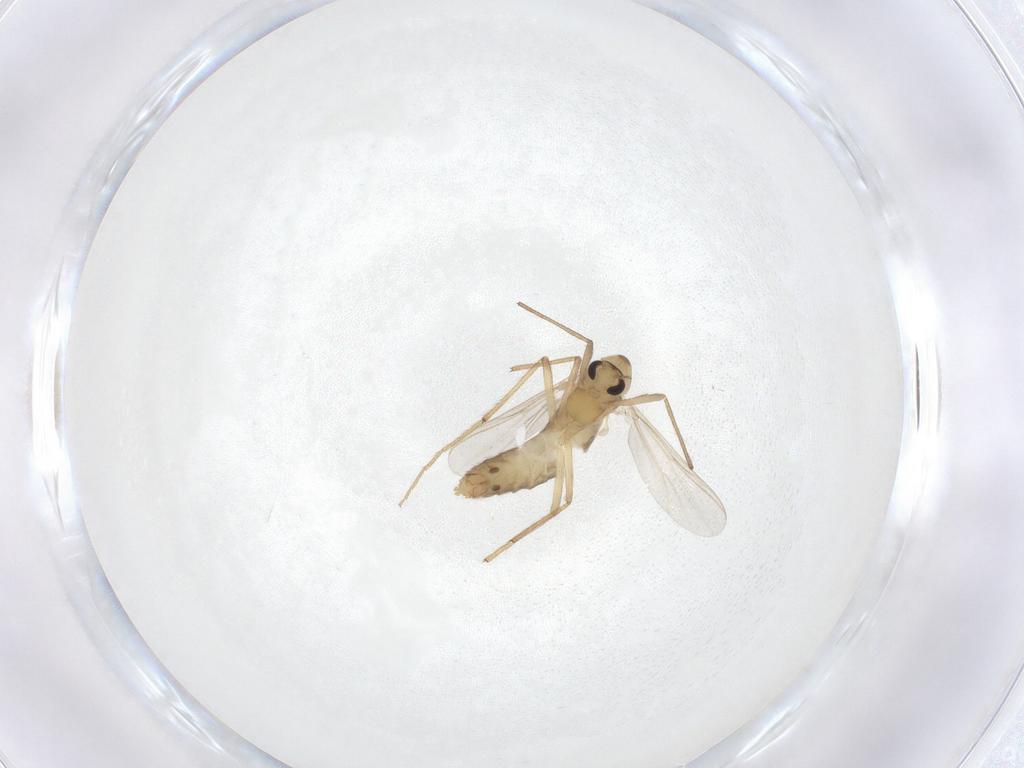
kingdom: Animalia
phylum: Arthropoda
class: Insecta
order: Diptera
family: Chironomidae
